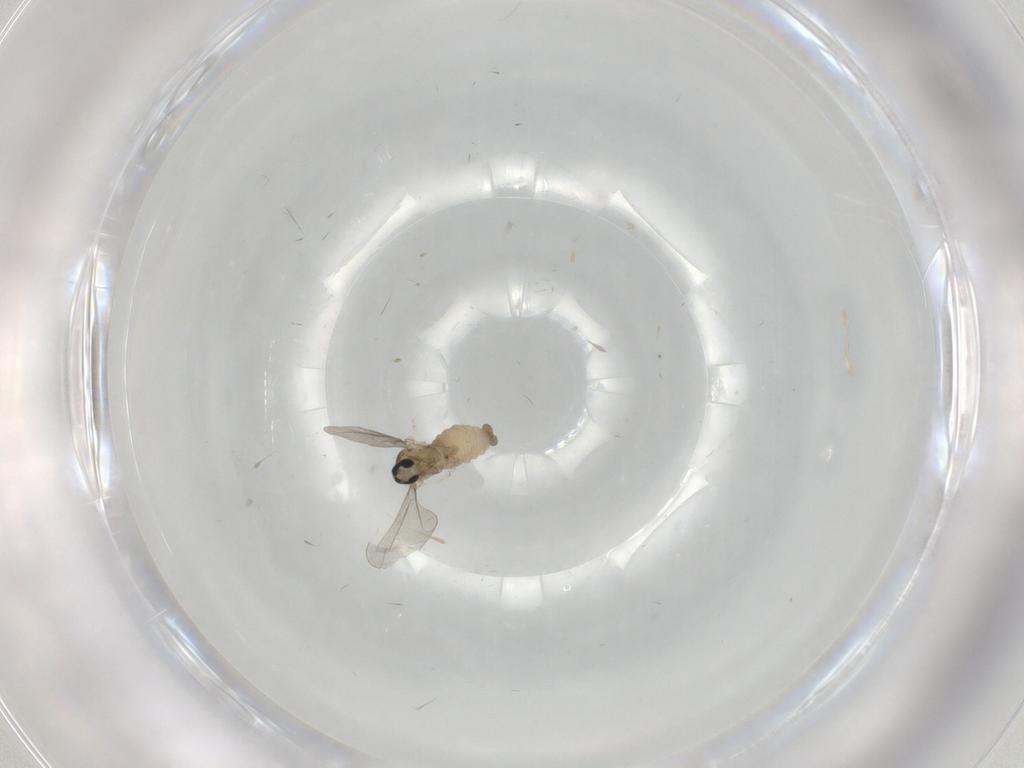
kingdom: Animalia
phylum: Arthropoda
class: Insecta
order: Diptera
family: Cecidomyiidae
